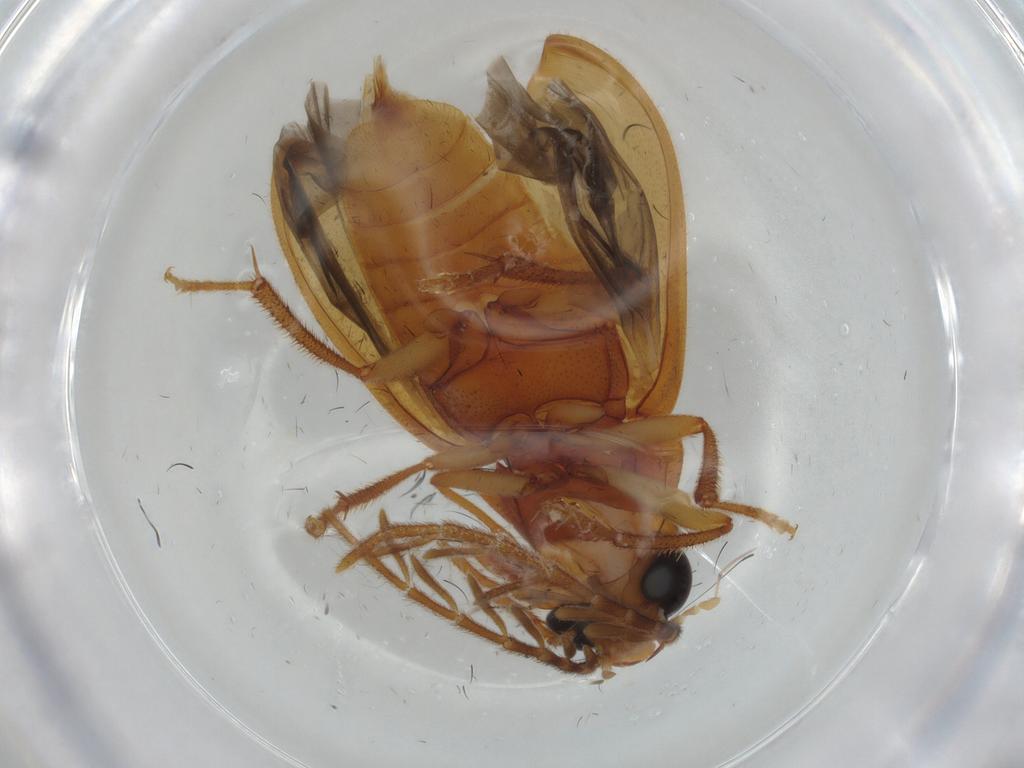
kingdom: Animalia
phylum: Arthropoda
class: Insecta
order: Coleoptera
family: Ptilodactylidae
